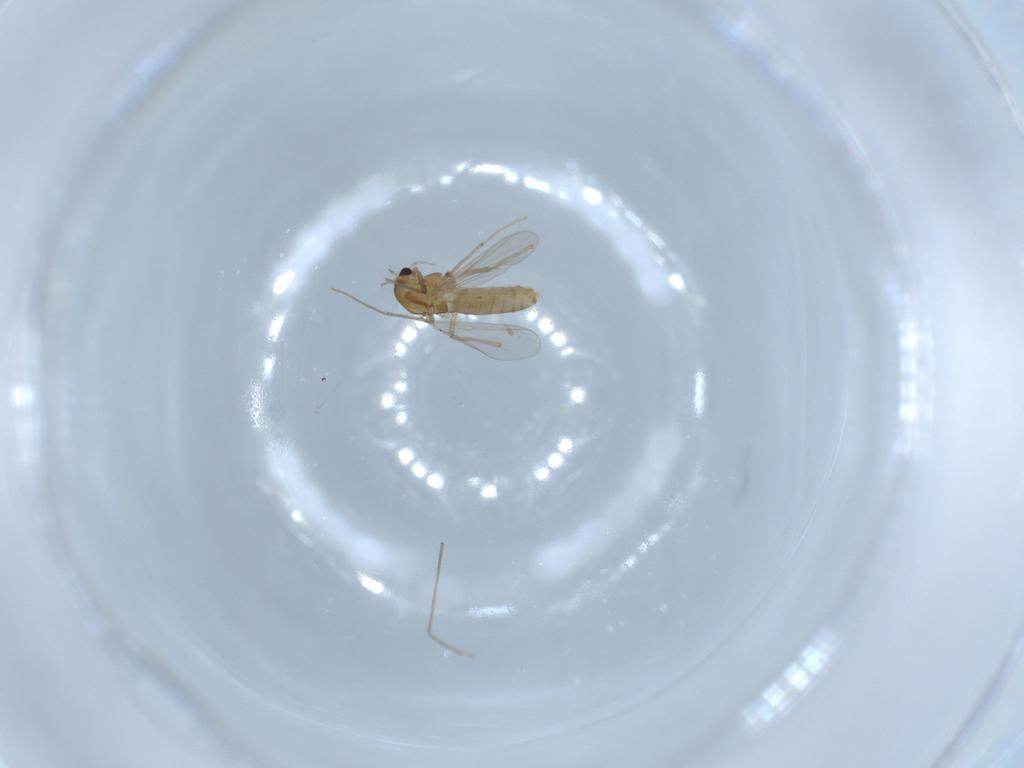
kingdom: Animalia
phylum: Arthropoda
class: Insecta
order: Diptera
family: Chironomidae
